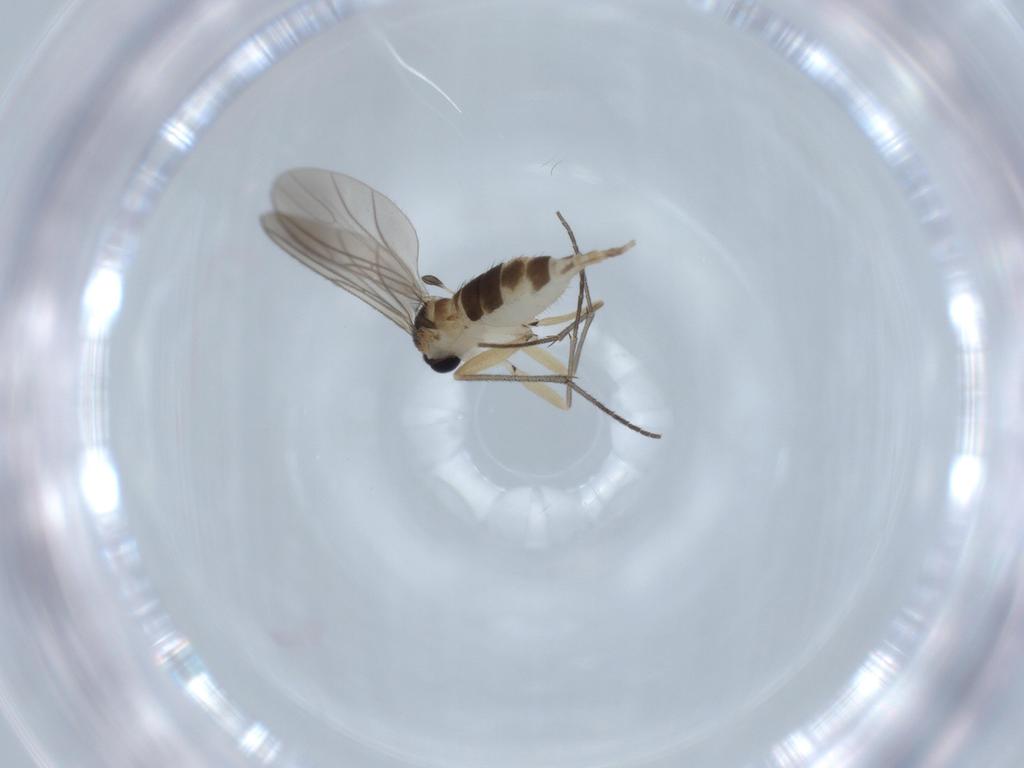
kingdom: Animalia
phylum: Arthropoda
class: Insecta
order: Diptera
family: Sciaridae
